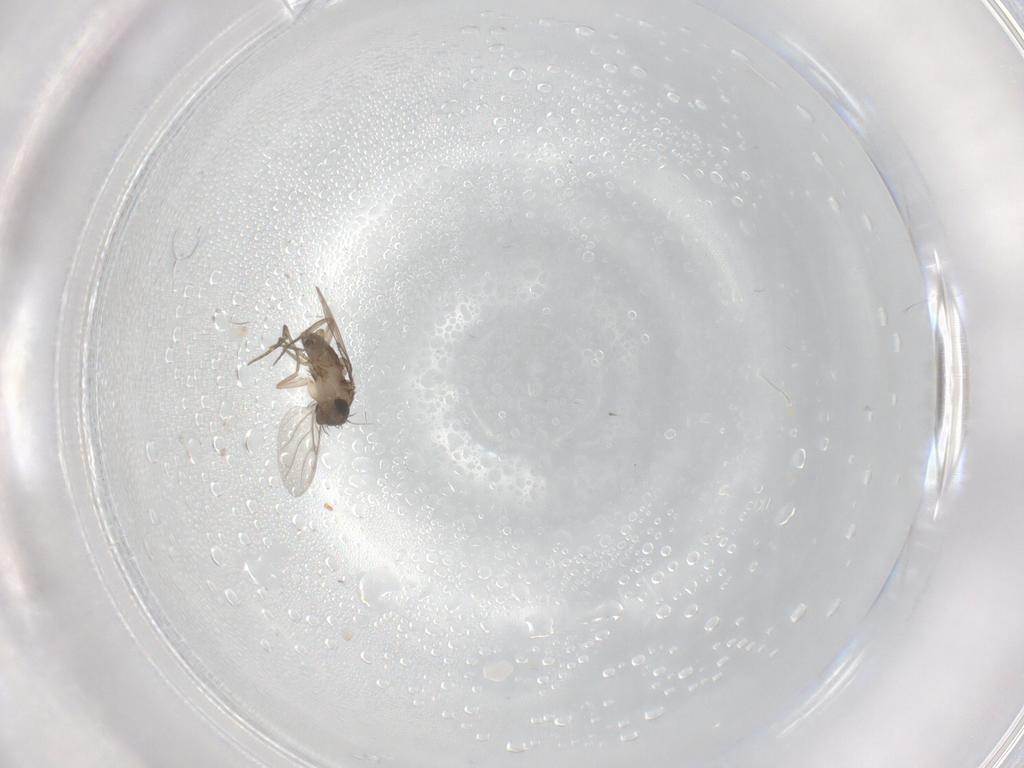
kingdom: Animalia
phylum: Arthropoda
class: Insecta
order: Diptera
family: Phoridae
